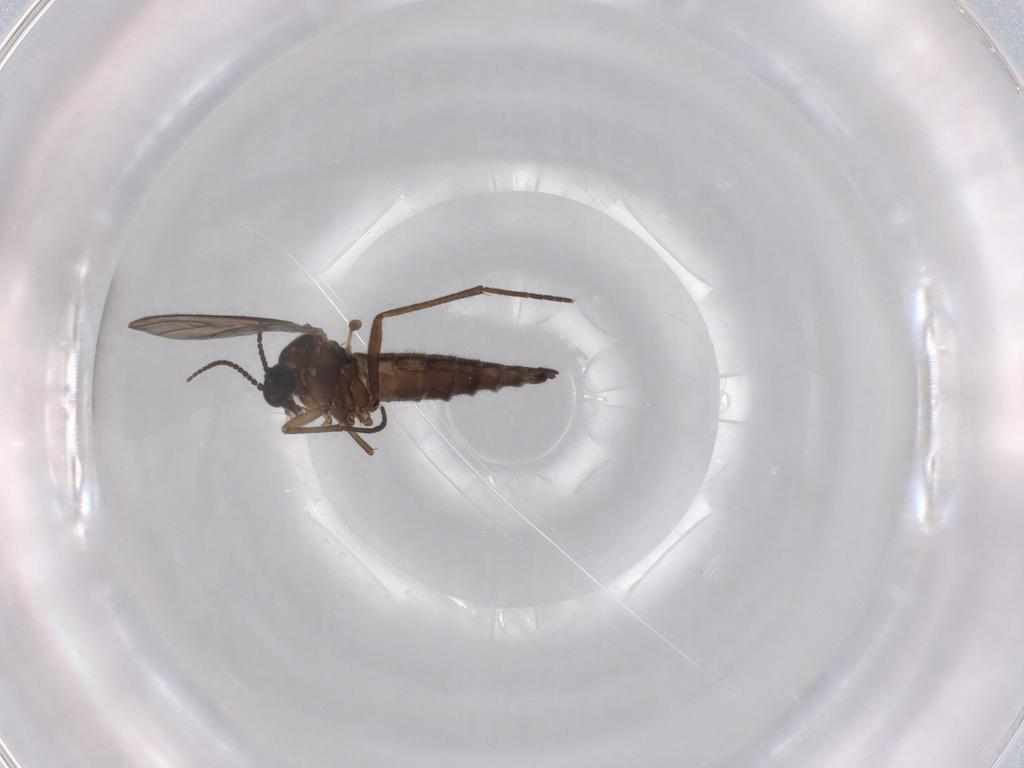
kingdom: Animalia
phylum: Arthropoda
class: Insecta
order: Diptera
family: Sciaridae
